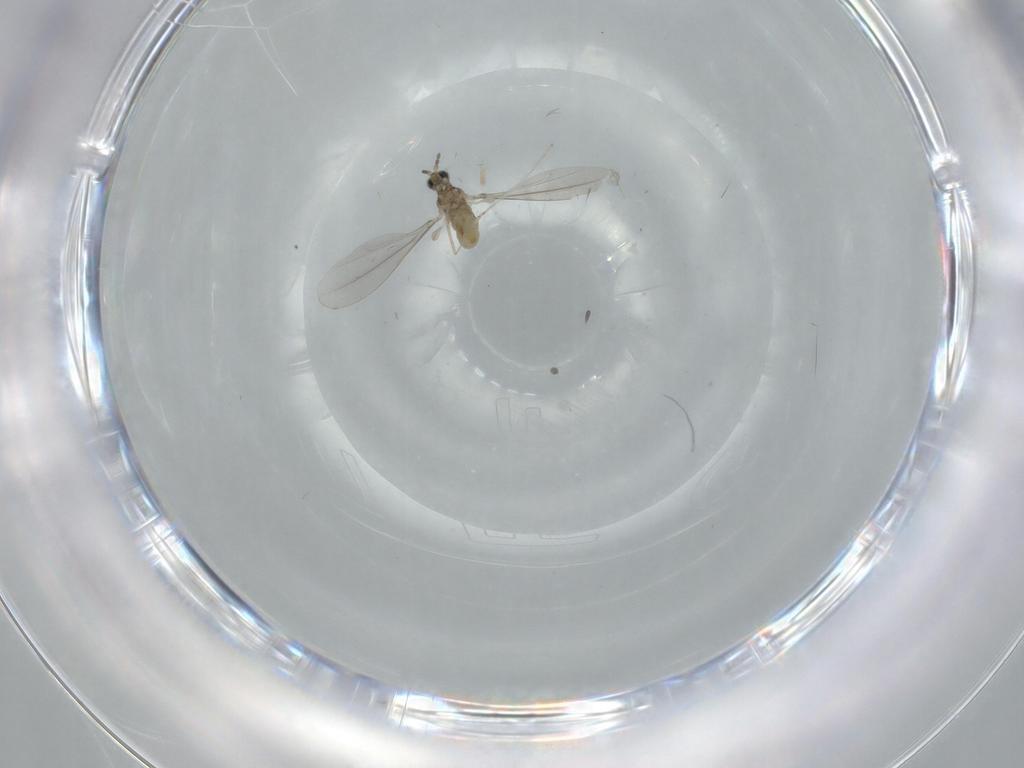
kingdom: Animalia
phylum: Arthropoda
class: Insecta
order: Diptera
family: Cecidomyiidae
